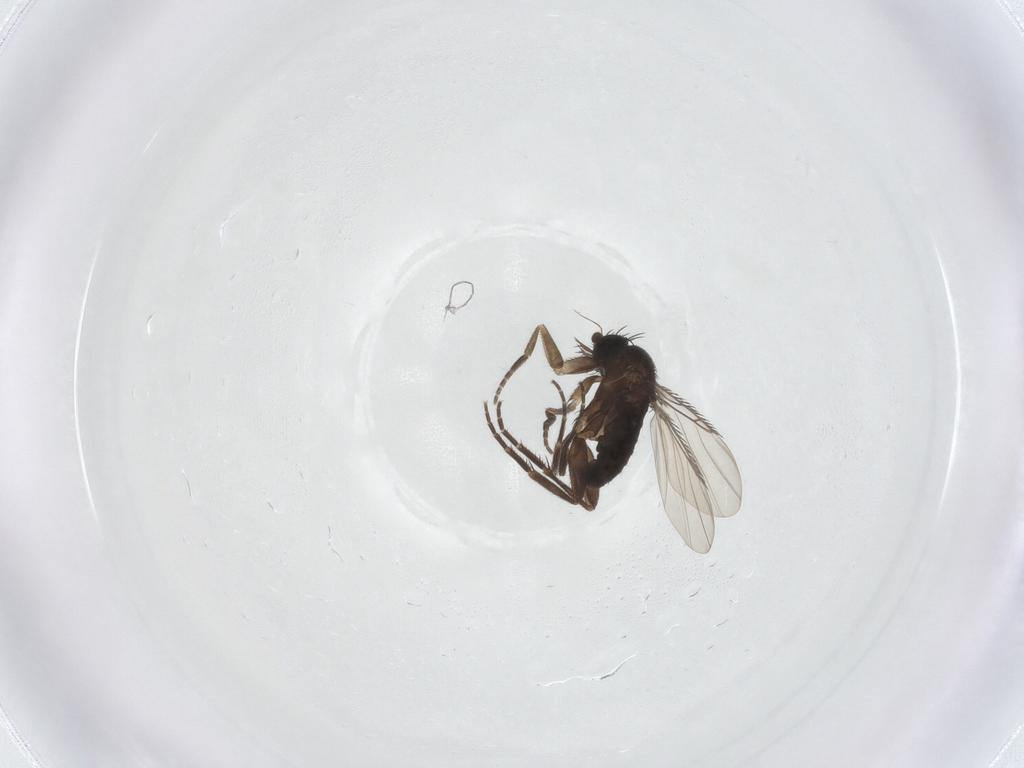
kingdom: Animalia
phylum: Arthropoda
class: Insecta
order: Diptera
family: Phoridae
